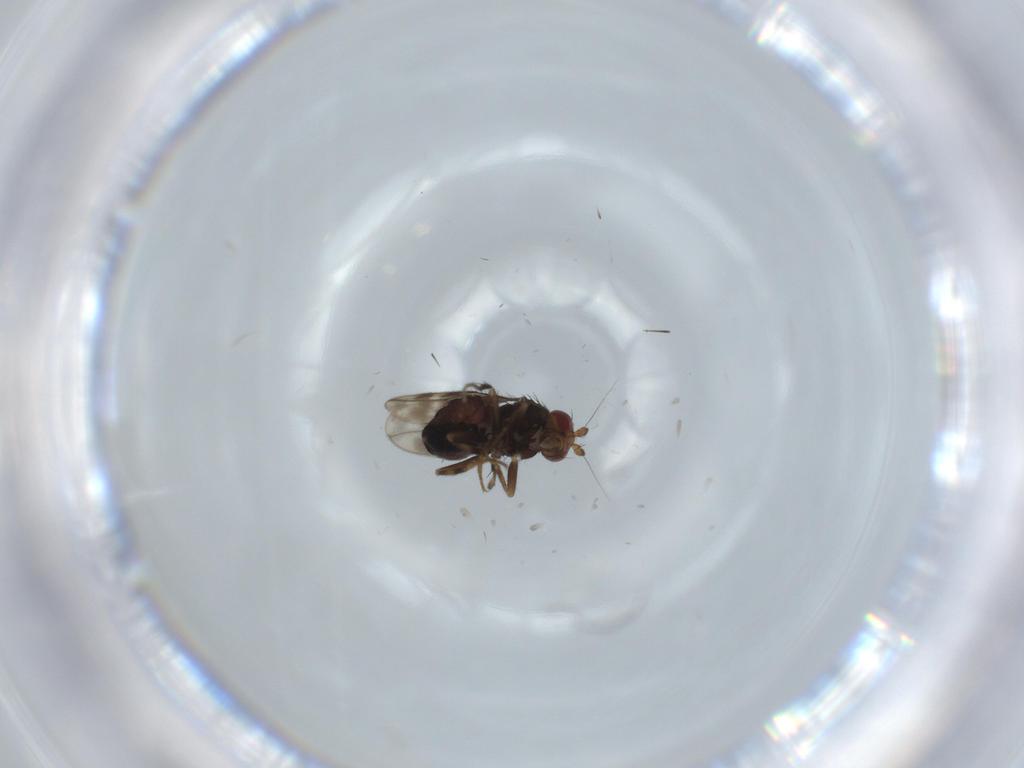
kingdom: Animalia
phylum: Arthropoda
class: Insecta
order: Diptera
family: Sphaeroceridae
